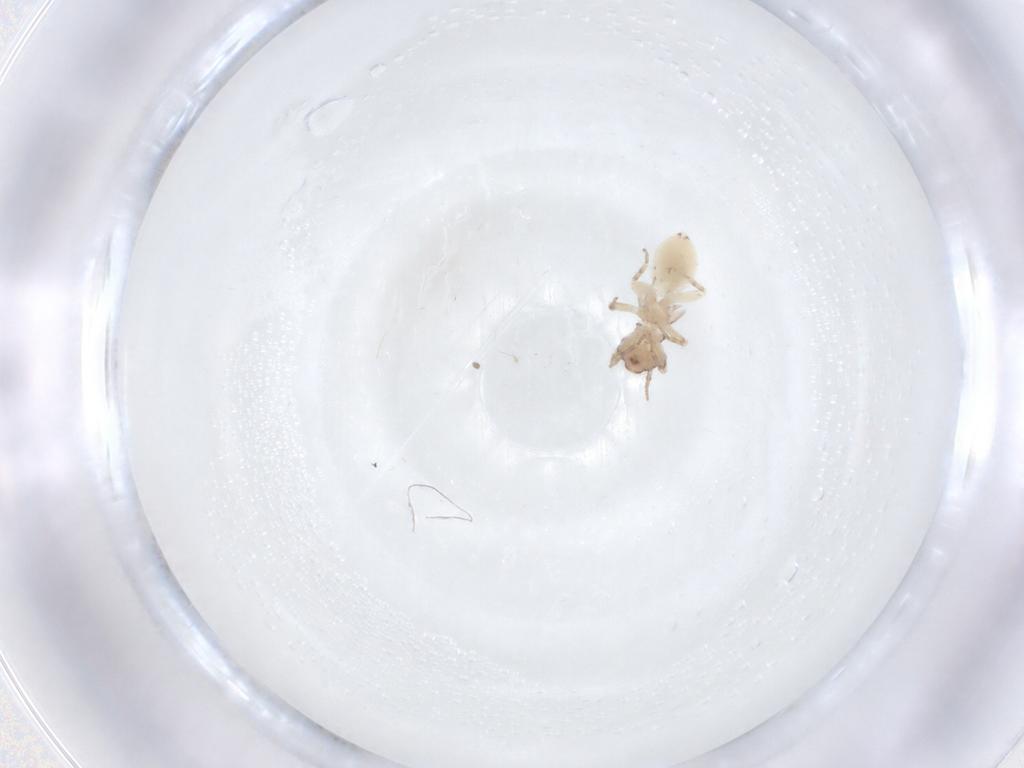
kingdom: Animalia
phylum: Arthropoda
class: Insecta
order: Psocodea
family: Lepidopsocidae
